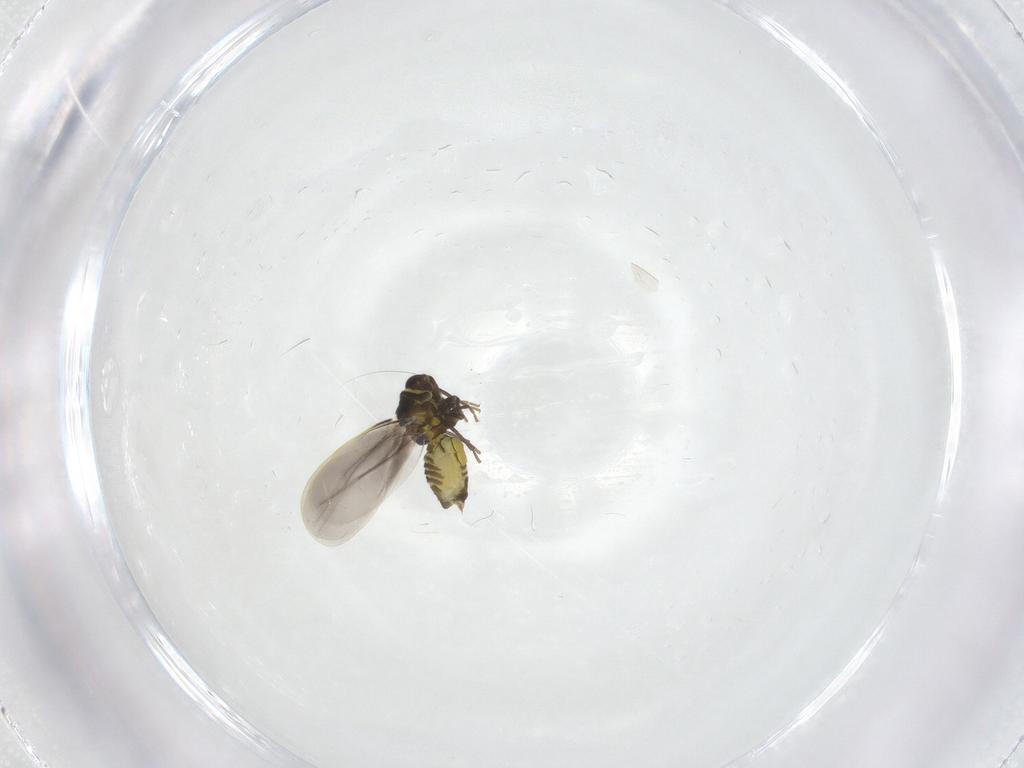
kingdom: Animalia
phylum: Arthropoda
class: Insecta
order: Hemiptera
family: Aleyrodidae
